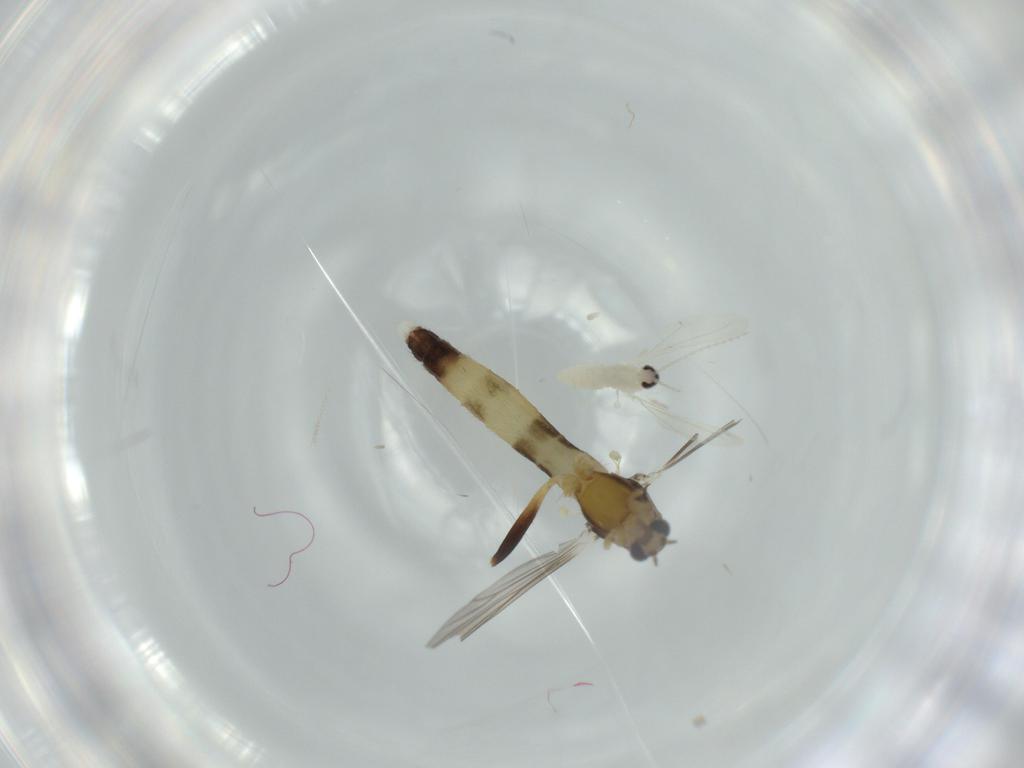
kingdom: Animalia
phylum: Arthropoda
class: Insecta
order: Diptera
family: Chironomidae
